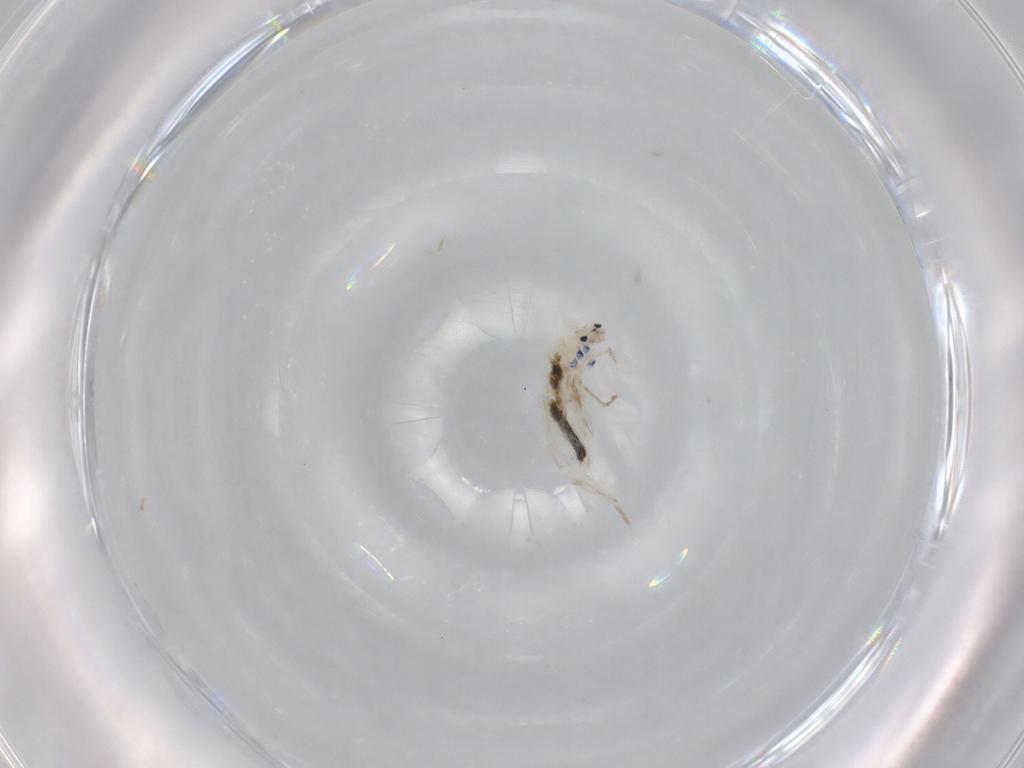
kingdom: Animalia
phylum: Arthropoda
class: Collembola
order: Entomobryomorpha
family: Entomobryidae
